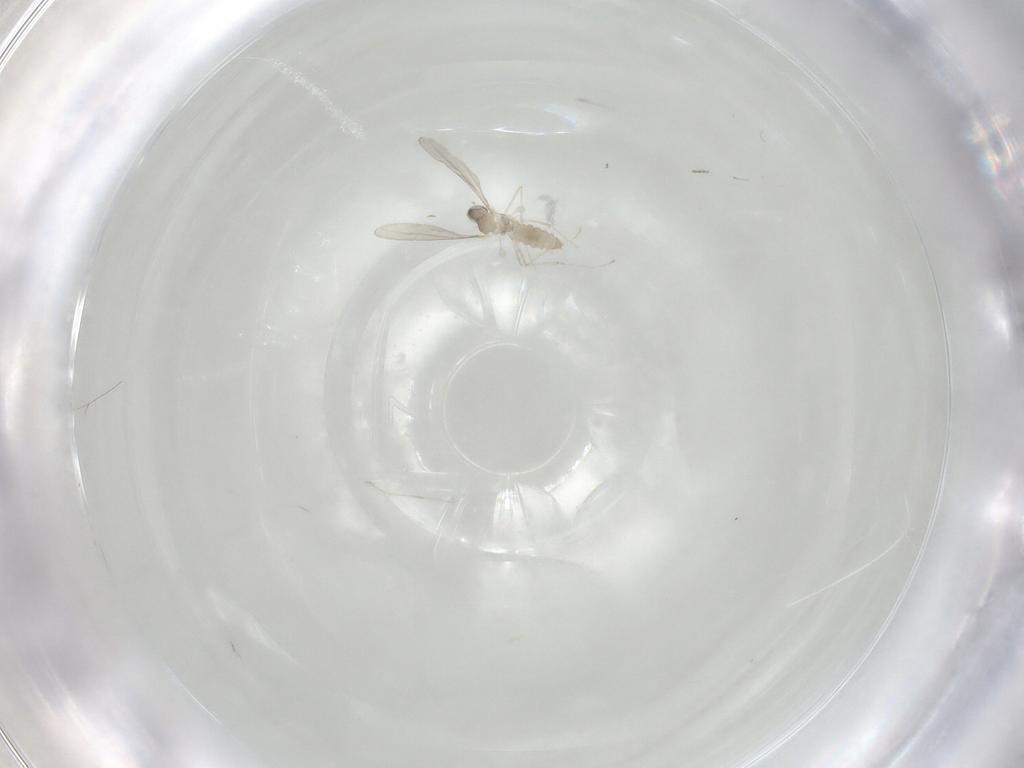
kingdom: Animalia
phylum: Arthropoda
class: Insecta
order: Diptera
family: Cecidomyiidae
